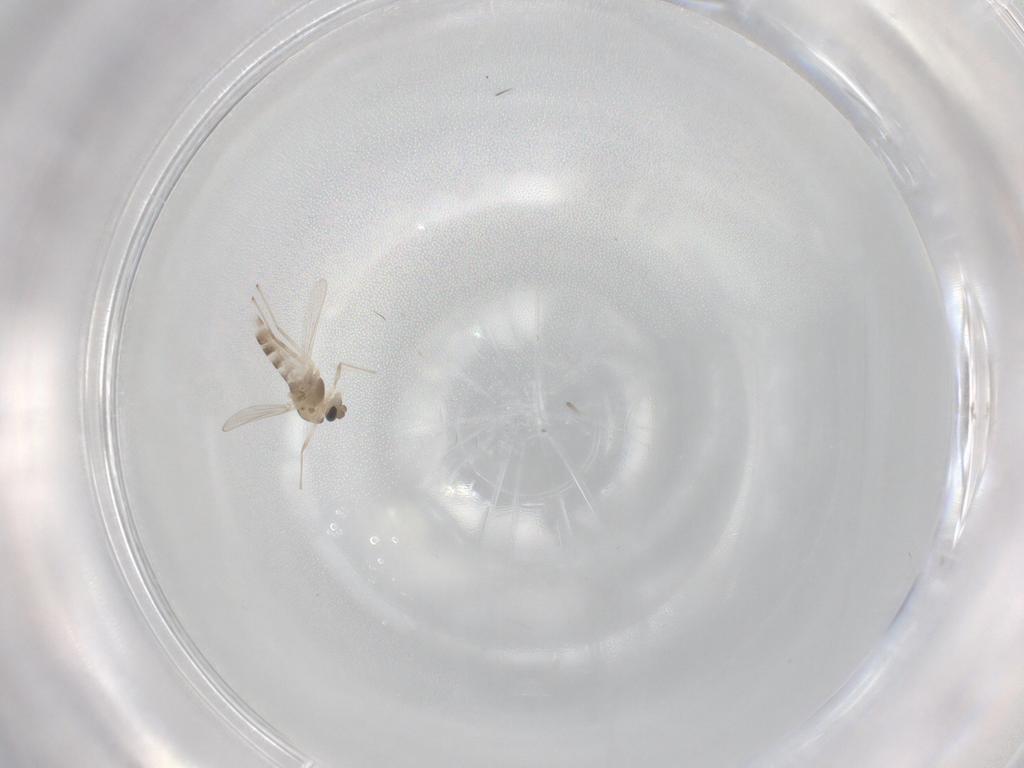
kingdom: Animalia
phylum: Arthropoda
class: Insecta
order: Diptera
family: Chironomidae
